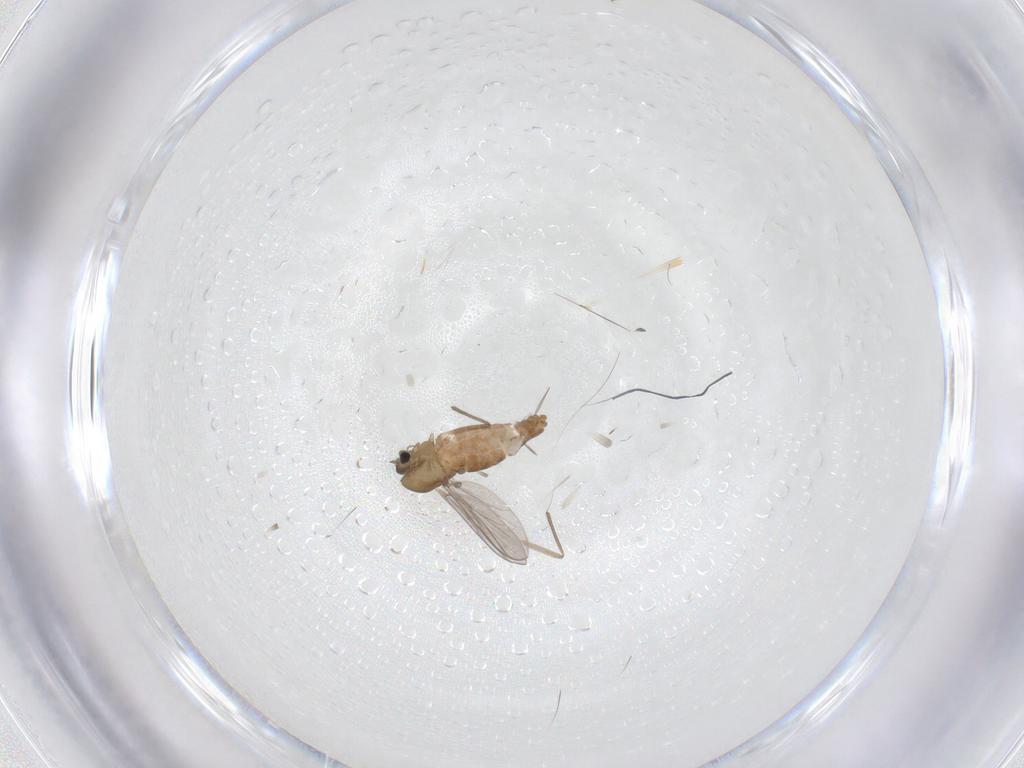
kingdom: Animalia
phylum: Arthropoda
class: Insecta
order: Diptera
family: Chironomidae
